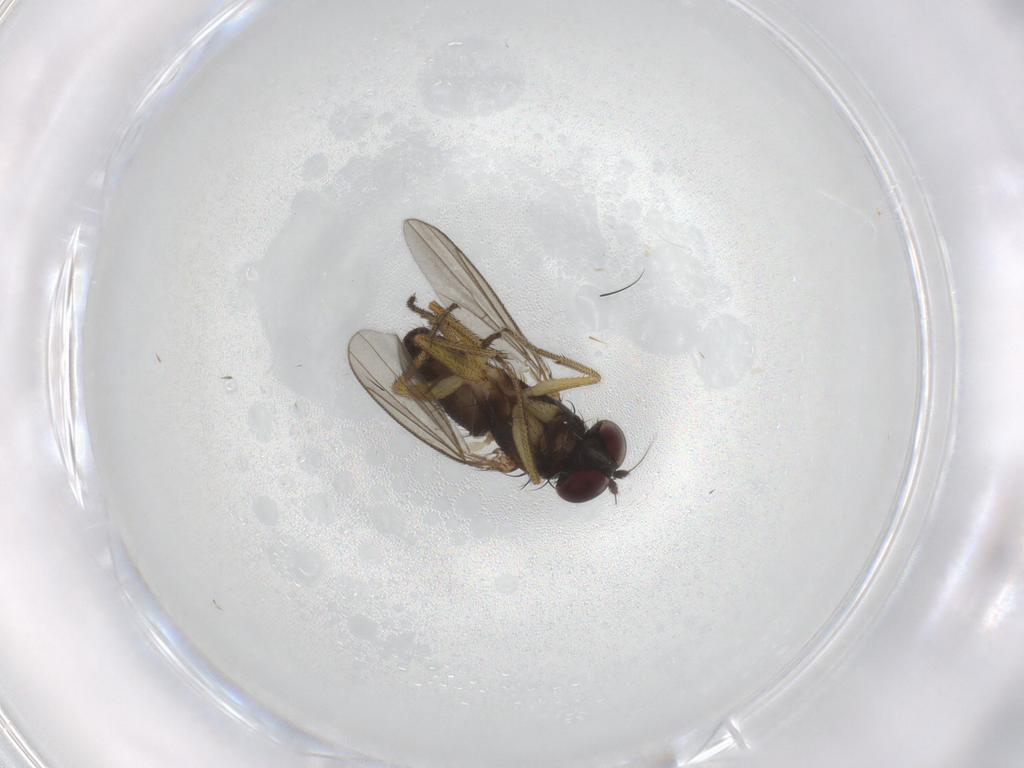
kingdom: Animalia
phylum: Arthropoda
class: Insecta
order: Diptera
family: Dolichopodidae
